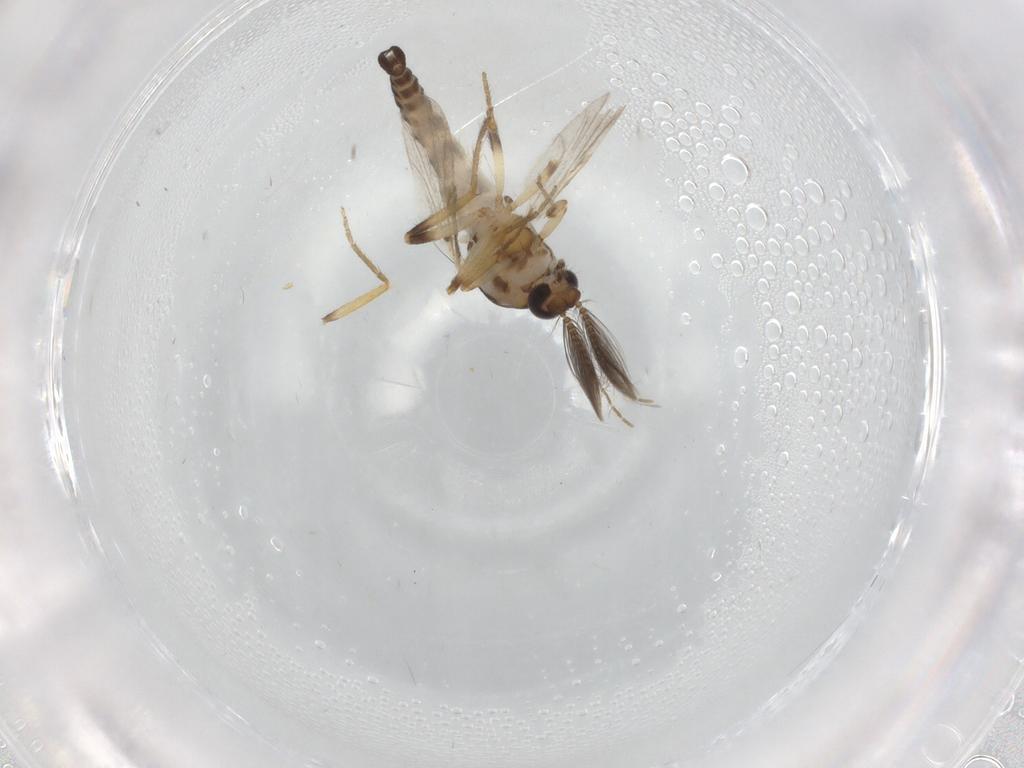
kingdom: Animalia
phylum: Arthropoda
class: Insecta
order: Diptera
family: Ceratopogonidae
